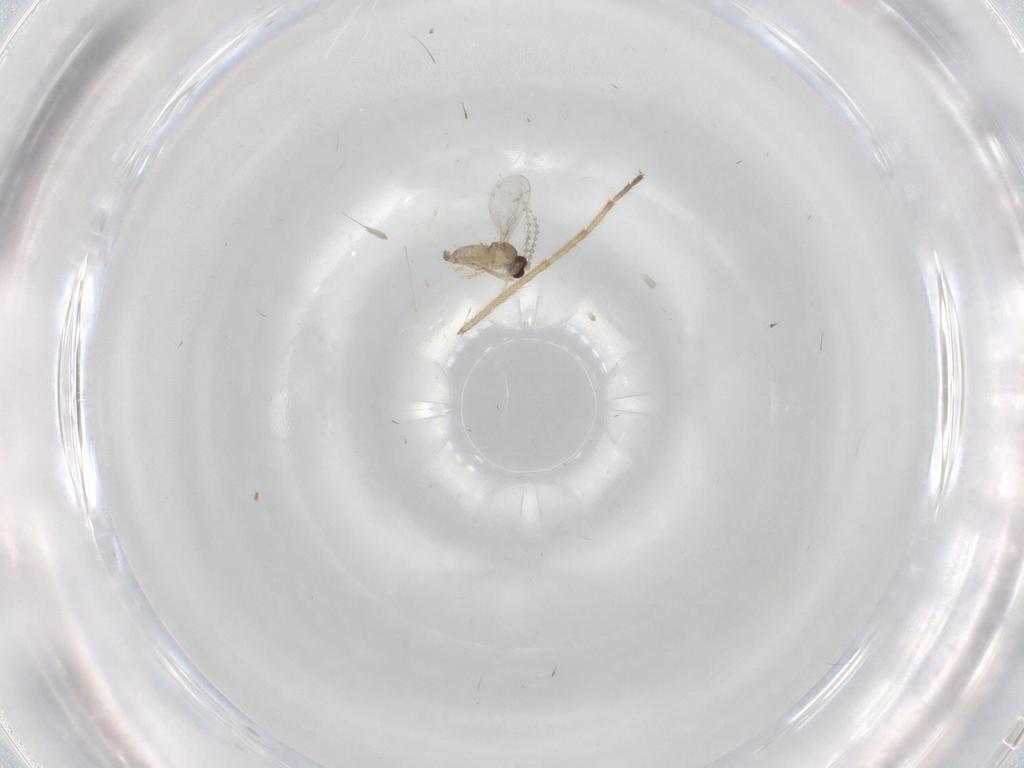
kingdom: Animalia
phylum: Arthropoda
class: Insecta
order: Diptera
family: Cecidomyiidae
